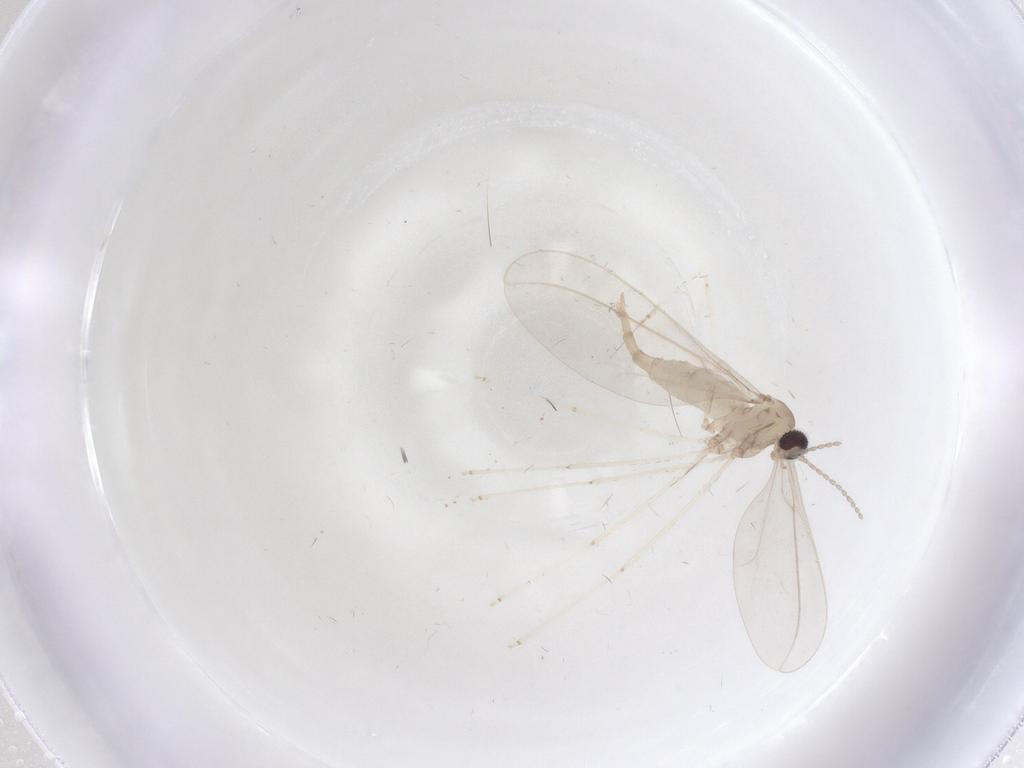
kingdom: Animalia
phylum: Arthropoda
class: Insecta
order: Diptera
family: Cecidomyiidae
